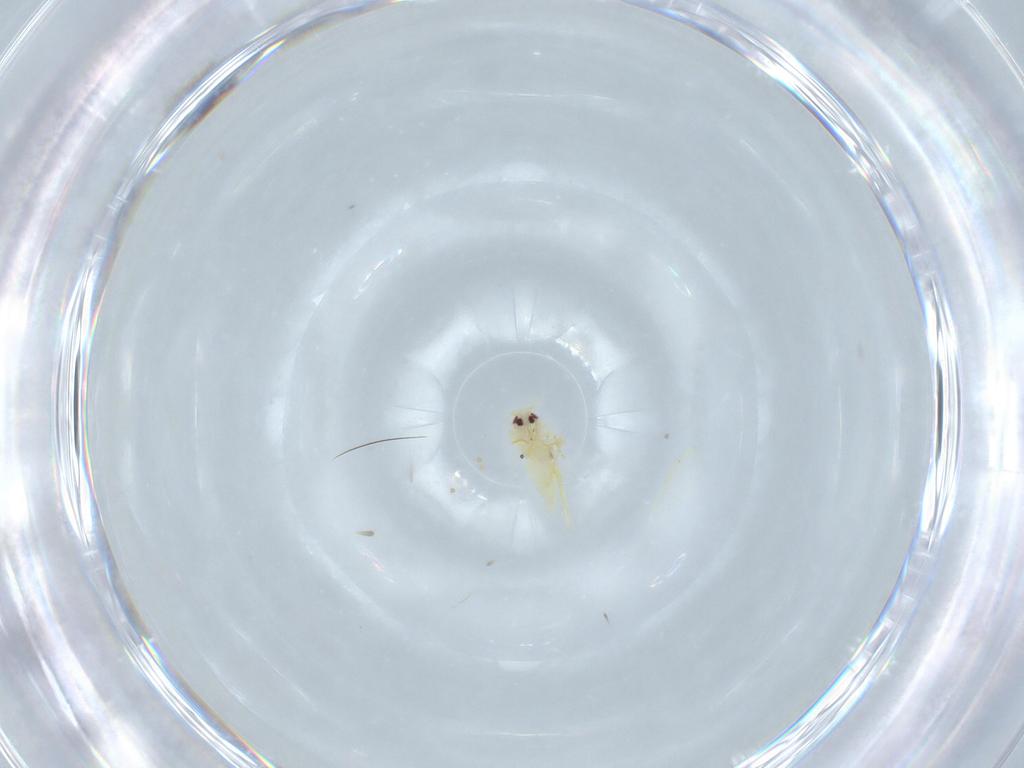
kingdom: Animalia
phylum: Arthropoda
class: Insecta
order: Hemiptera
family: Aleyrodidae
